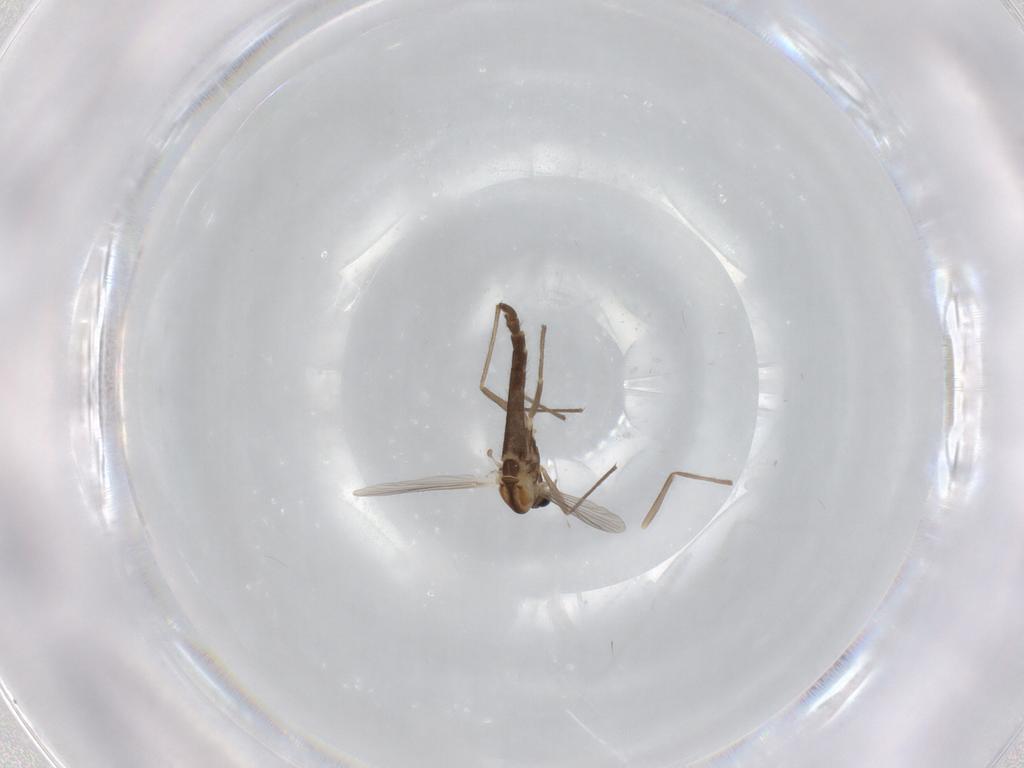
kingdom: Animalia
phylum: Arthropoda
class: Insecta
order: Diptera
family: Chironomidae
